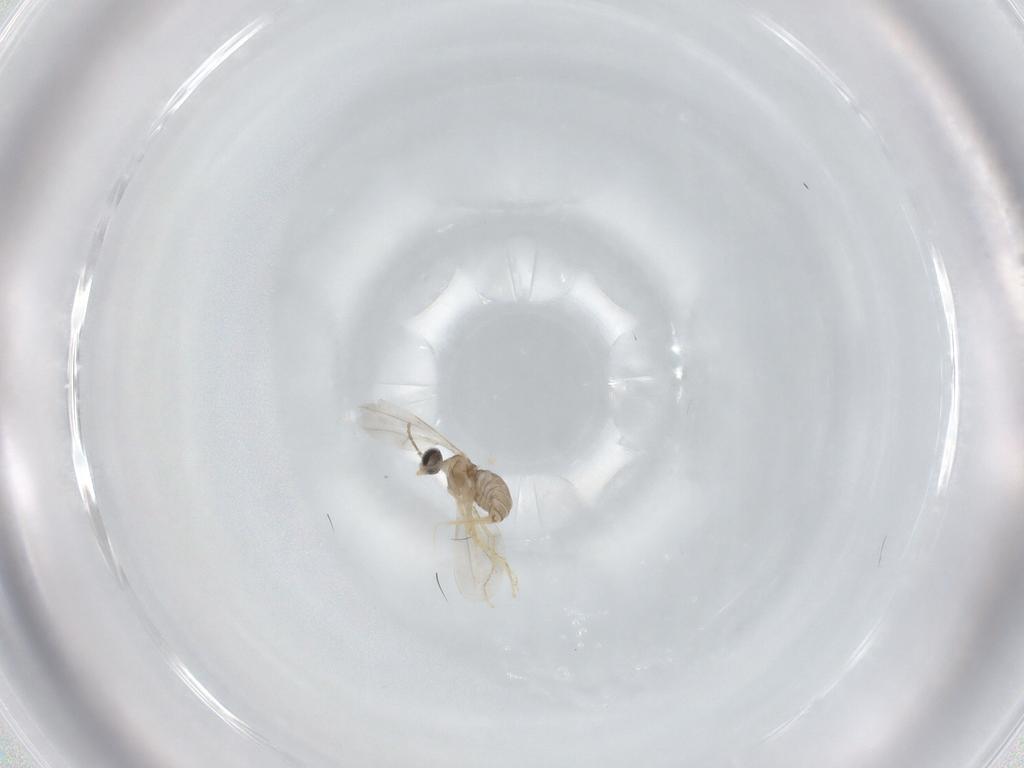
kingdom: Animalia
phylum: Arthropoda
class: Insecta
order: Diptera
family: Cecidomyiidae
